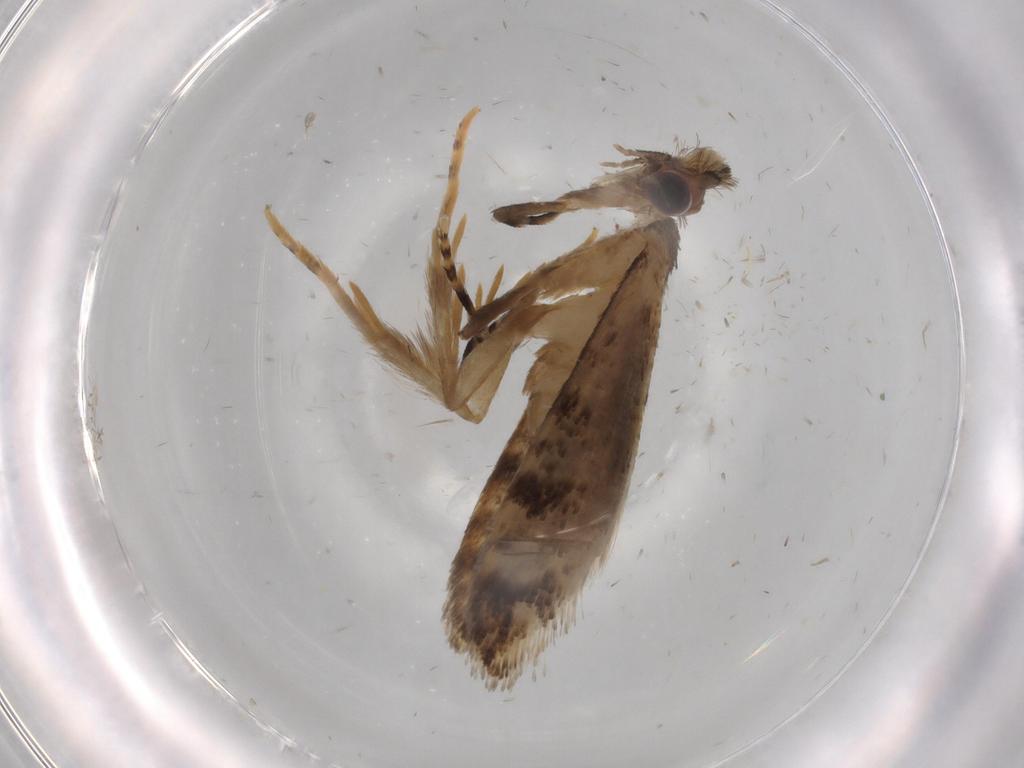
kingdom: Animalia
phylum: Arthropoda
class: Insecta
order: Lepidoptera
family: Tineidae
